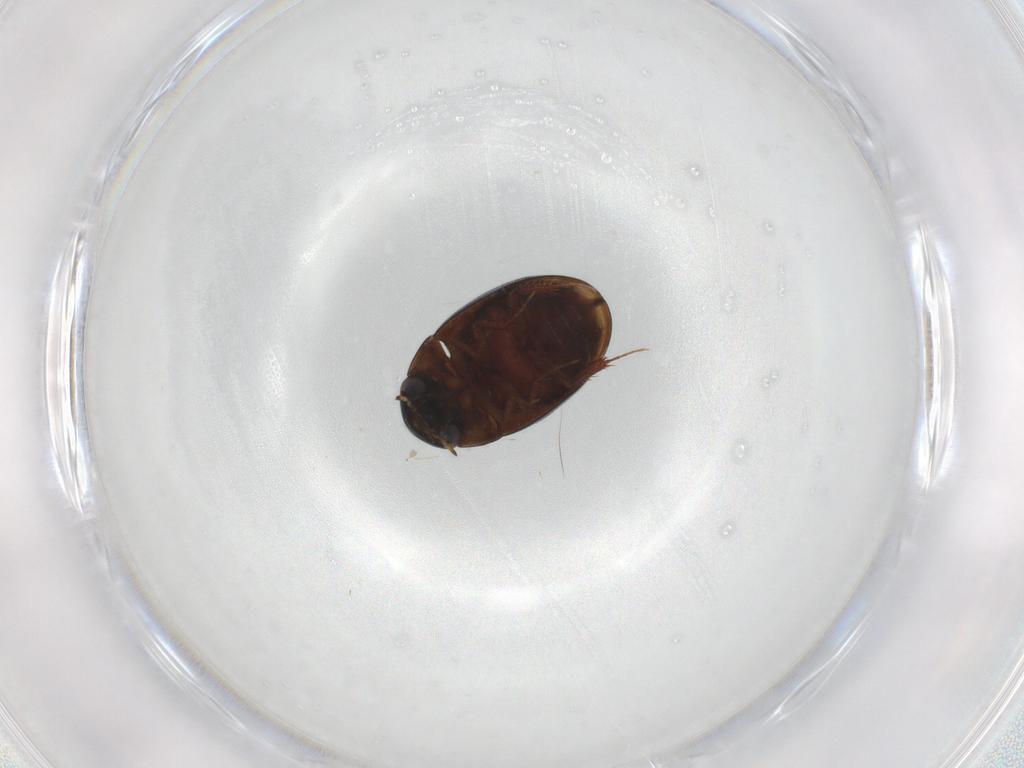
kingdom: Animalia
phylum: Arthropoda
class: Insecta
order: Coleoptera
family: Hydrophilidae
